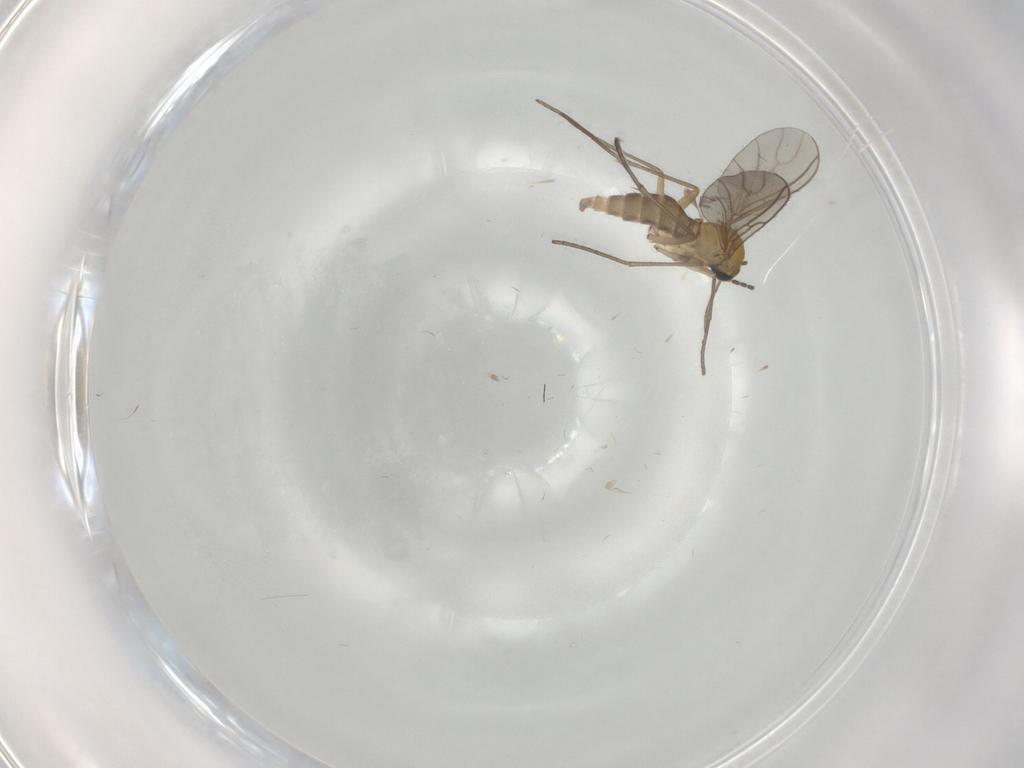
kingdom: Animalia
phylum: Arthropoda
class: Insecta
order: Diptera
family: Sciaridae
